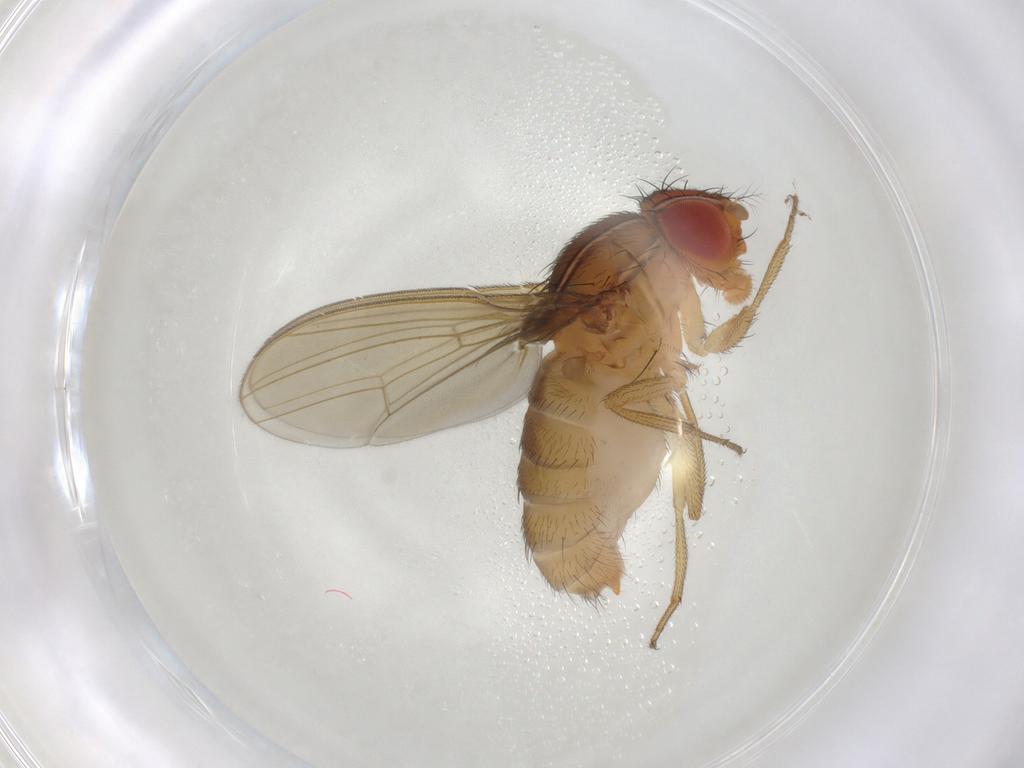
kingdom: Animalia
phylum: Arthropoda
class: Insecta
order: Diptera
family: Drosophilidae
